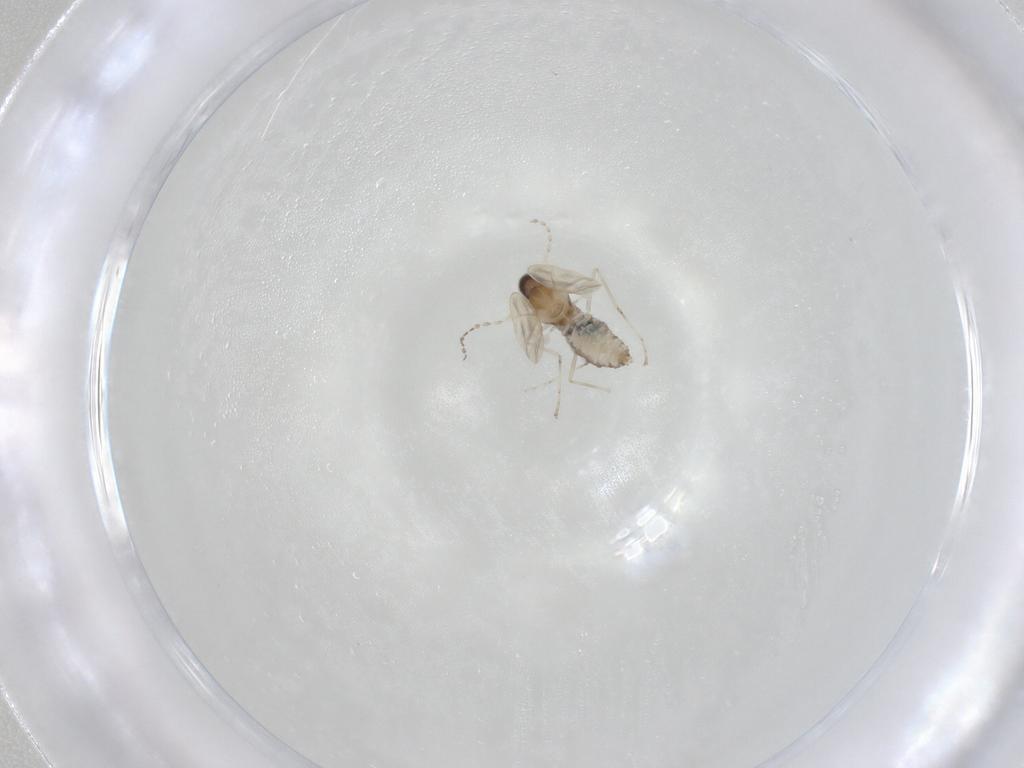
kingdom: Animalia
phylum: Arthropoda
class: Insecta
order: Diptera
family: Cecidomyiidae
